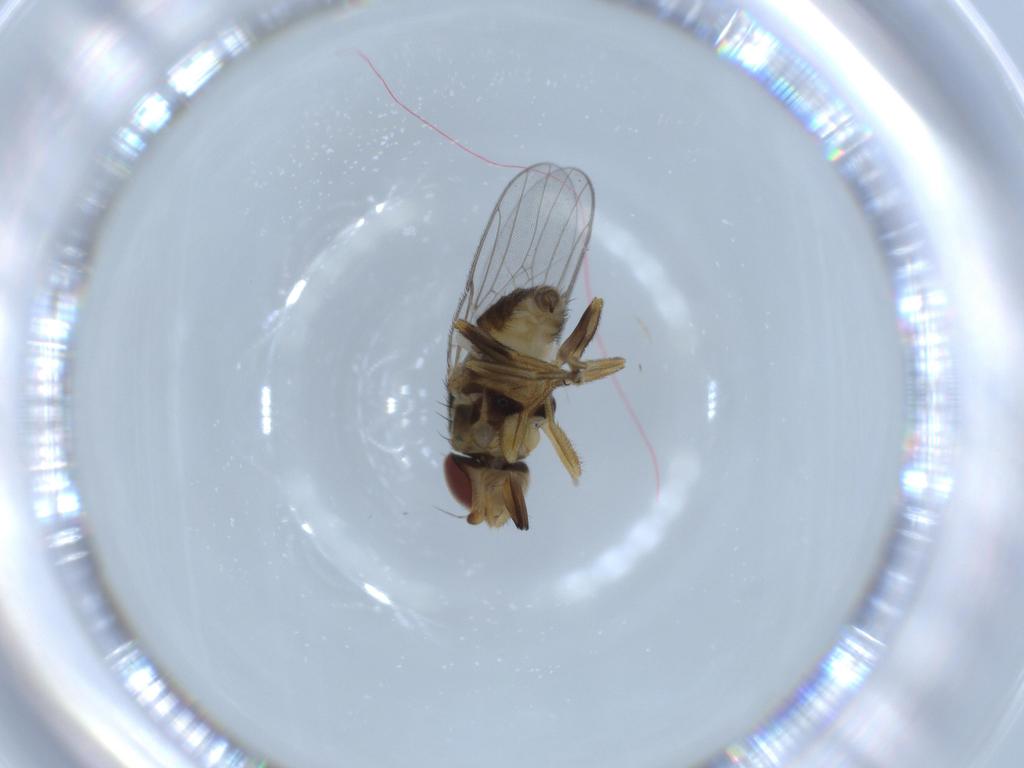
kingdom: Animalia
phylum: Arthropoda
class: Insecta
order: Diptera
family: Chloropidae
